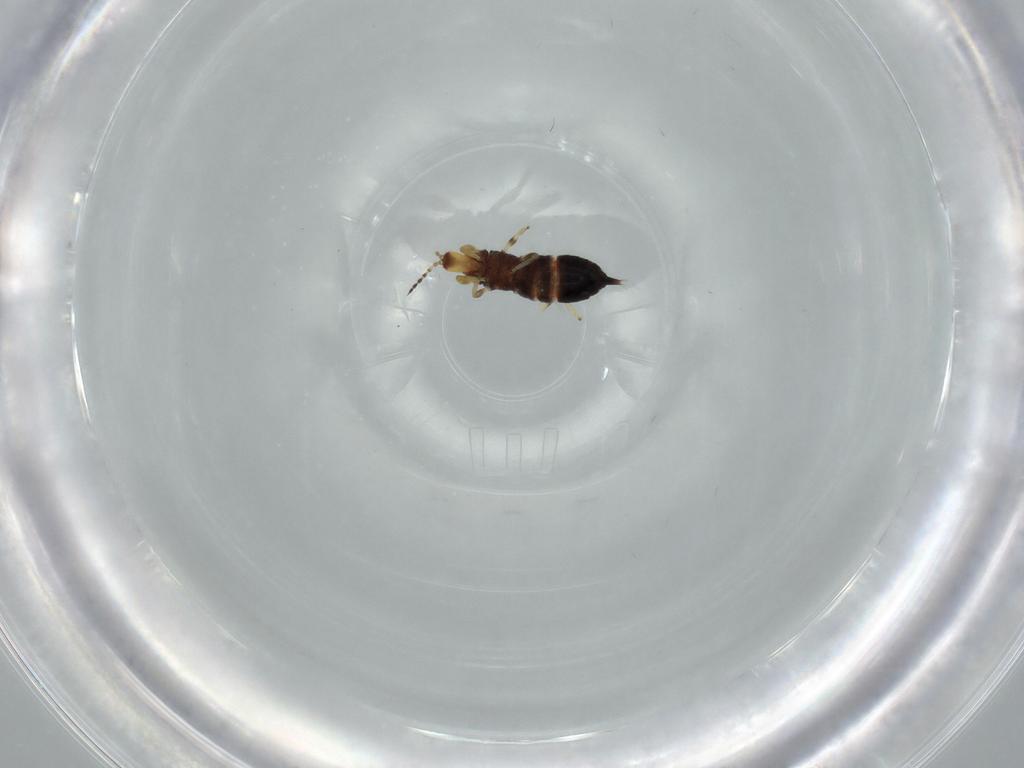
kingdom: Animalia
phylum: Arthropoda
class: Insecta
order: Thysanoptera
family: Phlaeothripidae
